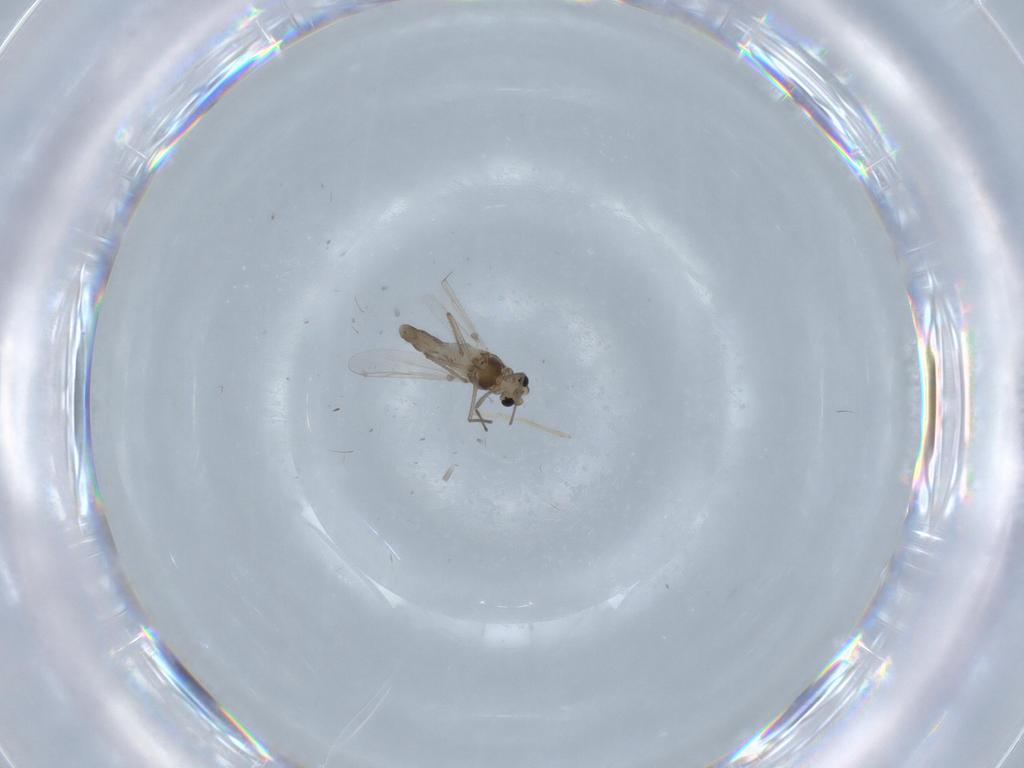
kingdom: Animalia
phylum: Arthropoda
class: Insecta
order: Diptera
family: Chironomidae
